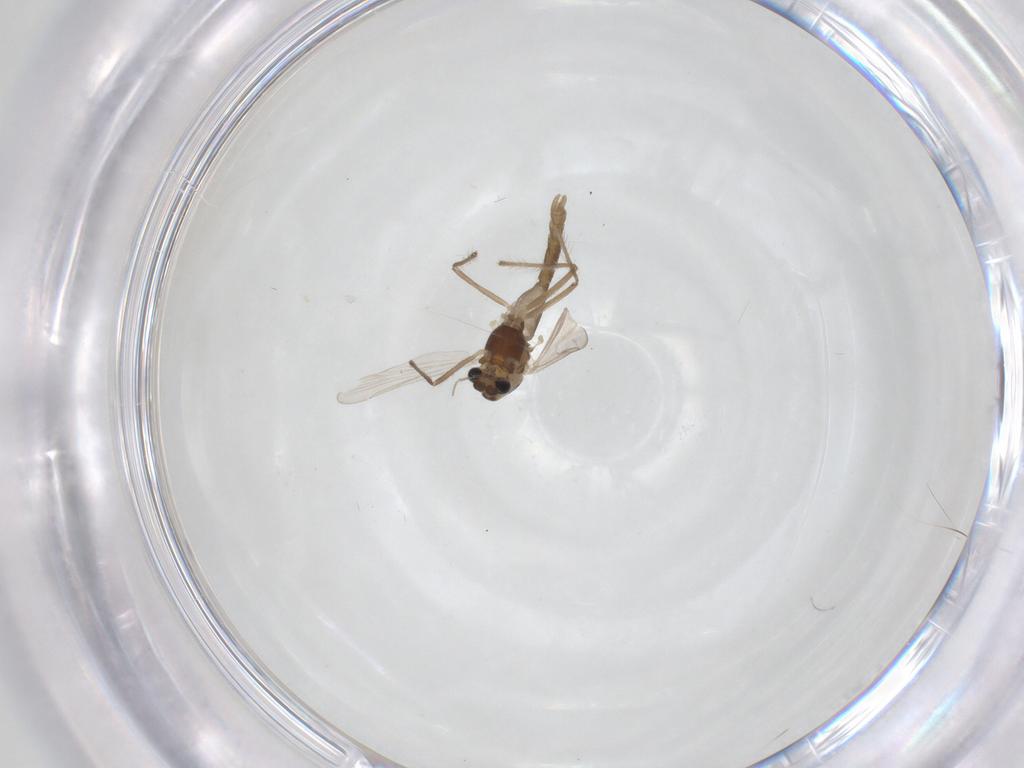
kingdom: Animalia
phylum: Arthropoda
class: Insecta
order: Diptera
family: Chironomidae
